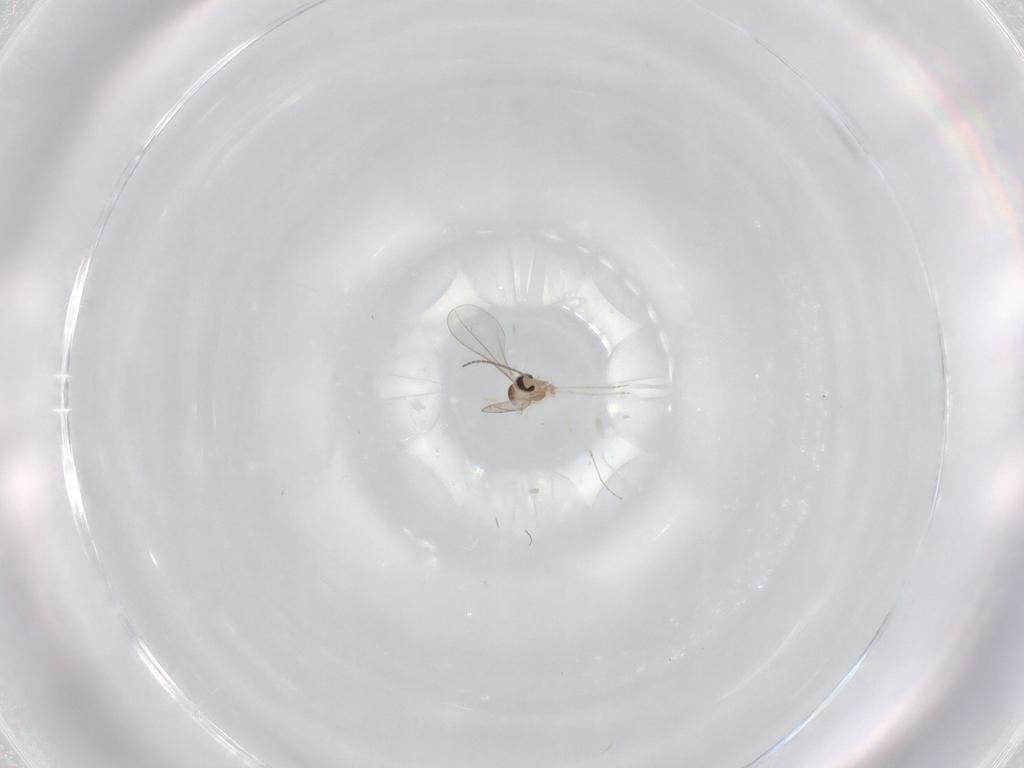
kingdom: Animalia
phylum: Arthropoda
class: Insecta
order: Diptera
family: Cecidomyiidae
